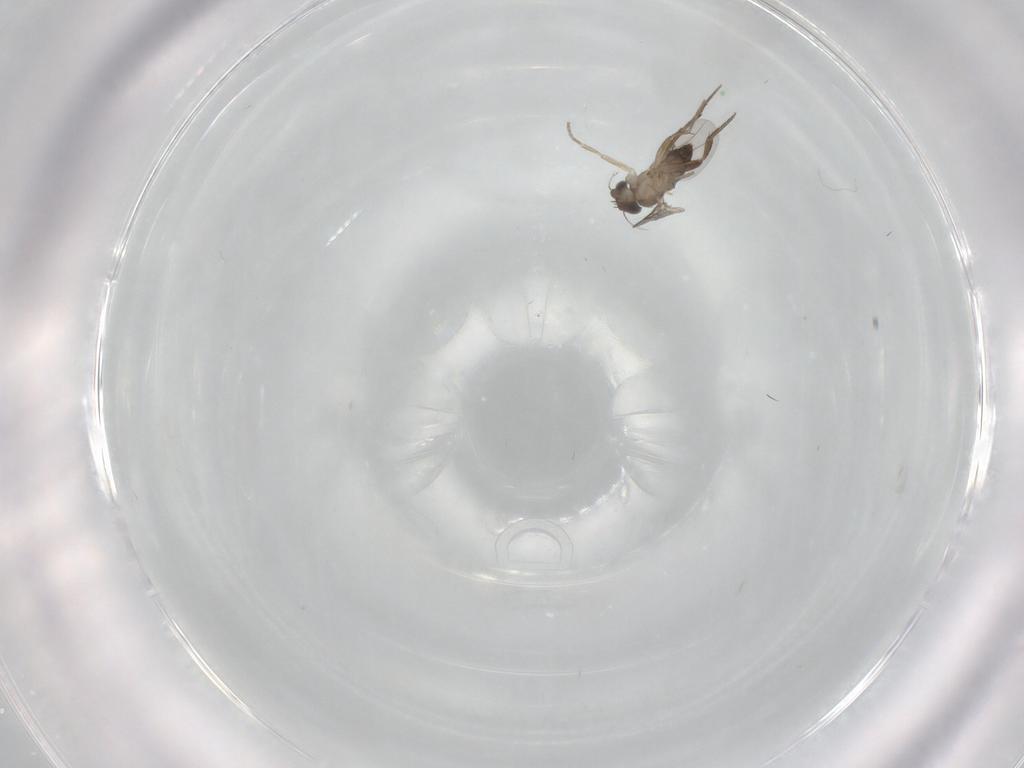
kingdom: Animalia
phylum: Arthropoda
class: Insecta
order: Diptera
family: Phoridae
